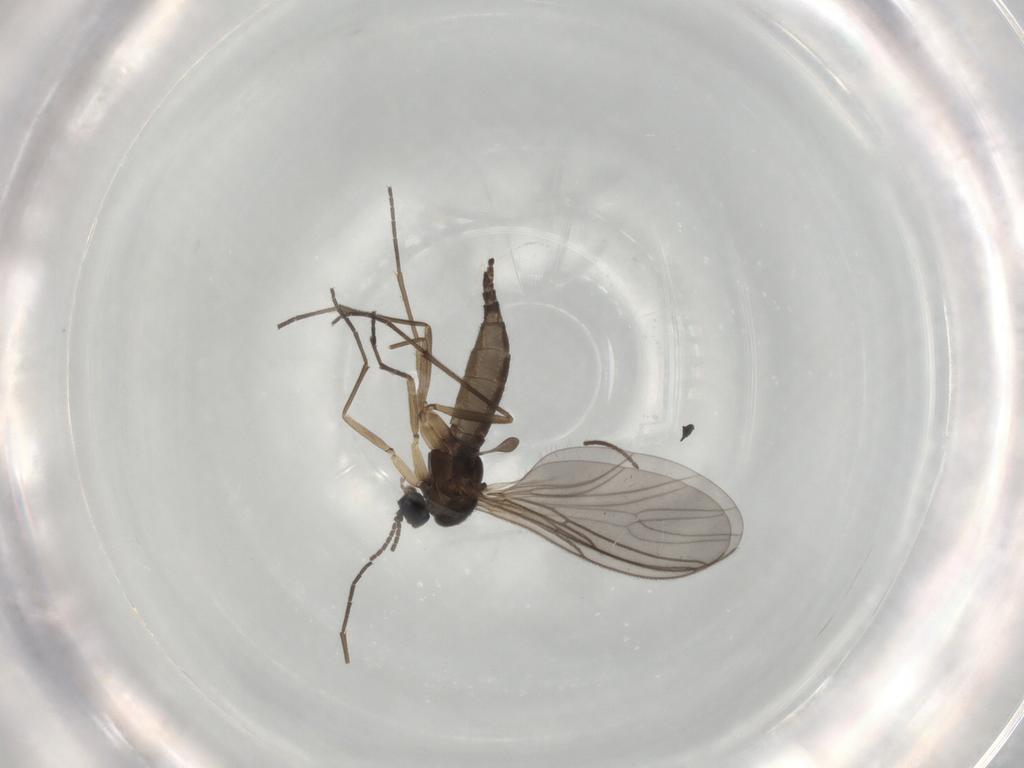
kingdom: Animalia
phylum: Arthropoda
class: Insecta
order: Diptera
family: Sciaridae
